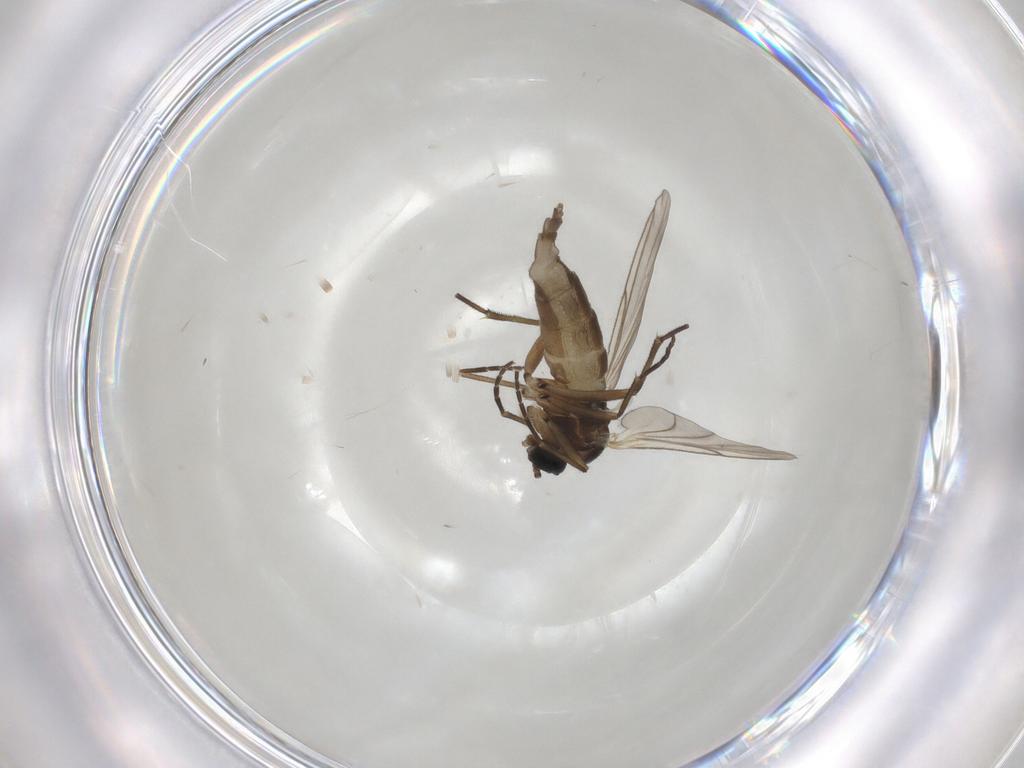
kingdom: Animalia
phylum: Arthropoda
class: Insecta
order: Diptera
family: Chironomidae
